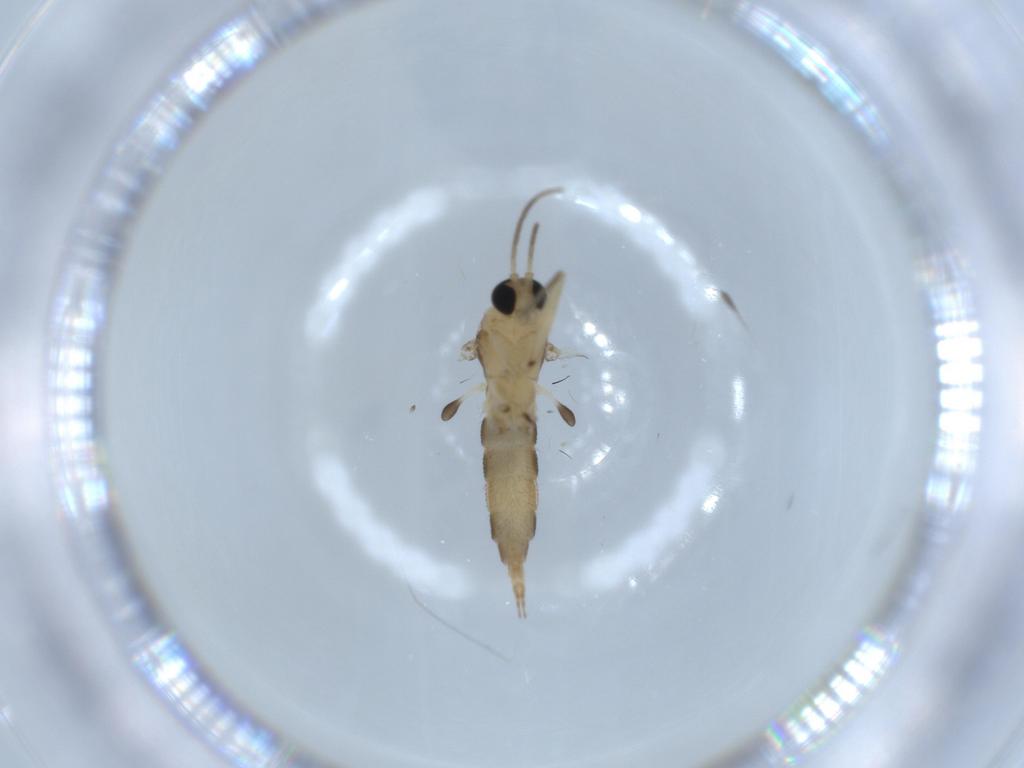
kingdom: Animalia
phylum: Arthropoda
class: Insecta
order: Diptera
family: Sciaridae
